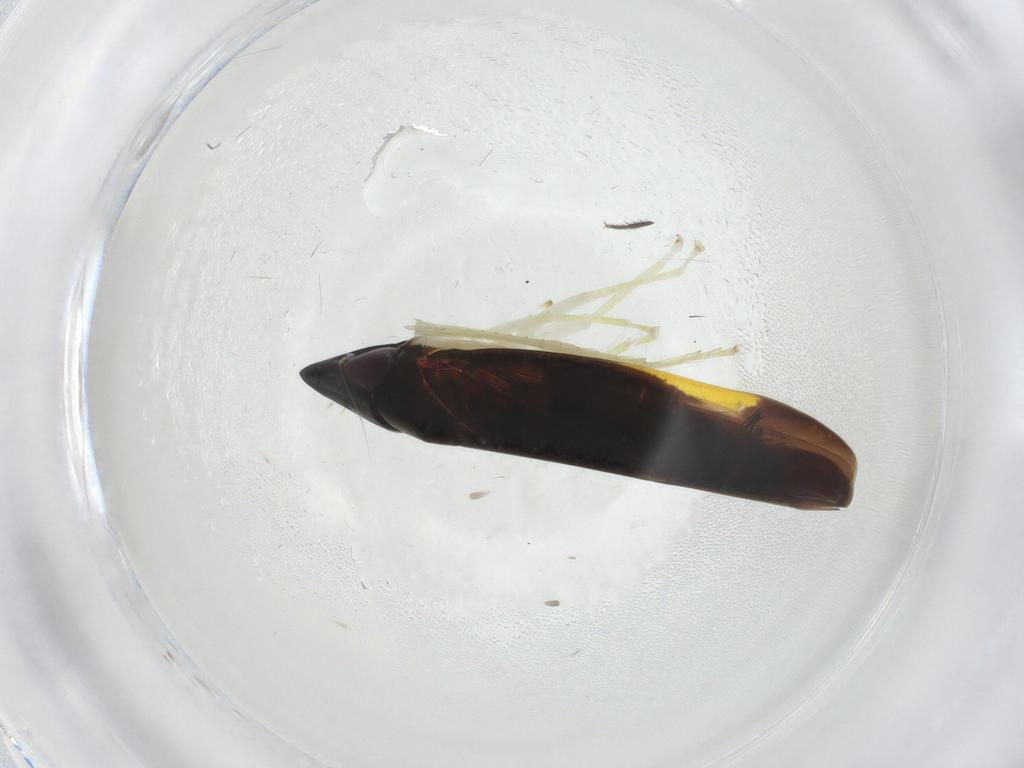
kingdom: Animalia
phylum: Arthropoda
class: Insecta
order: Hemiptera
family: Cicadellidae
